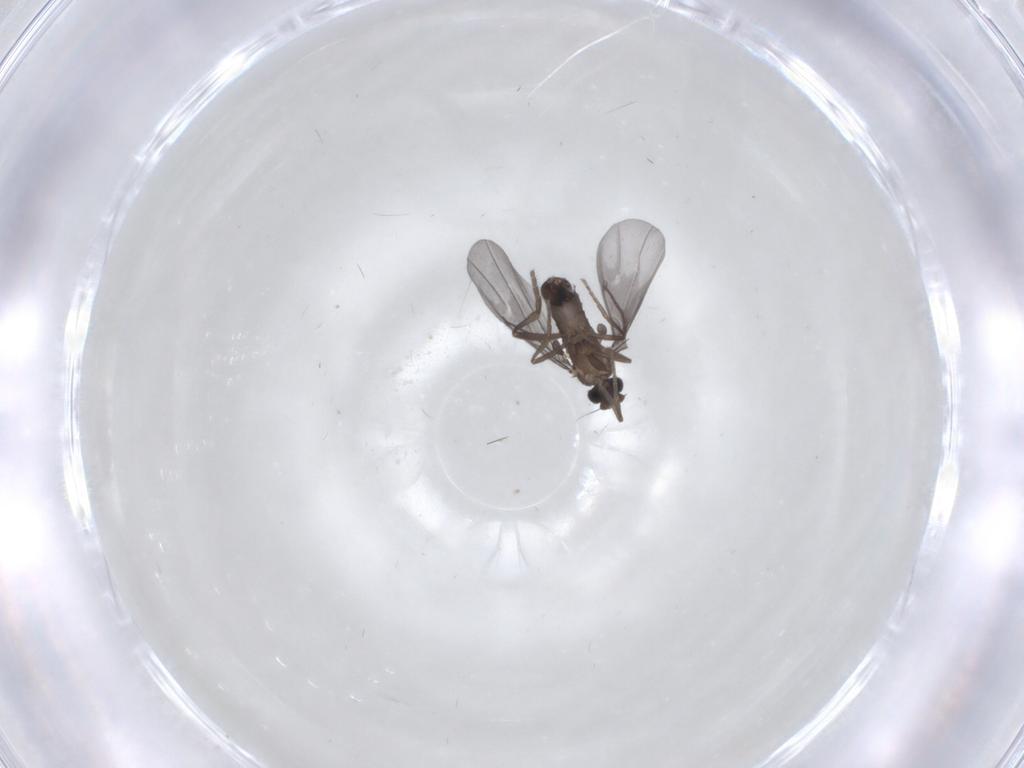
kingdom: Animalia
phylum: Arthropoda
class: Insecta
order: Diptera
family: Phoridae
